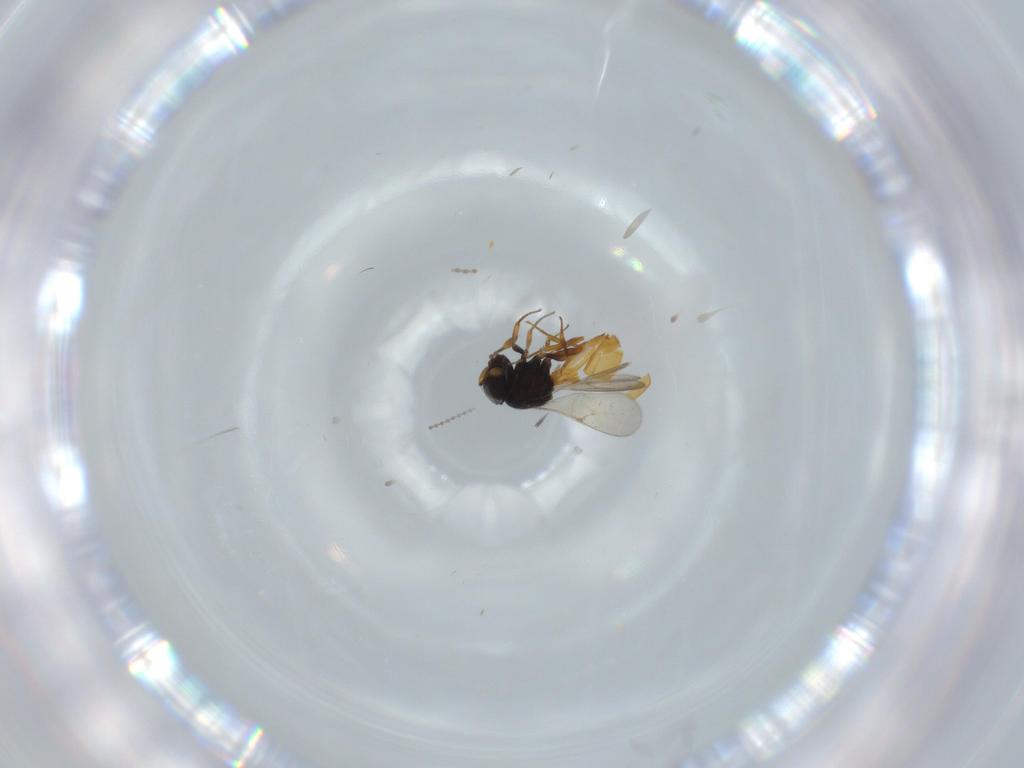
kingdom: Animalia
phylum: Arthropoda
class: Insecta
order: Hymenoptera
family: Scelionidae
